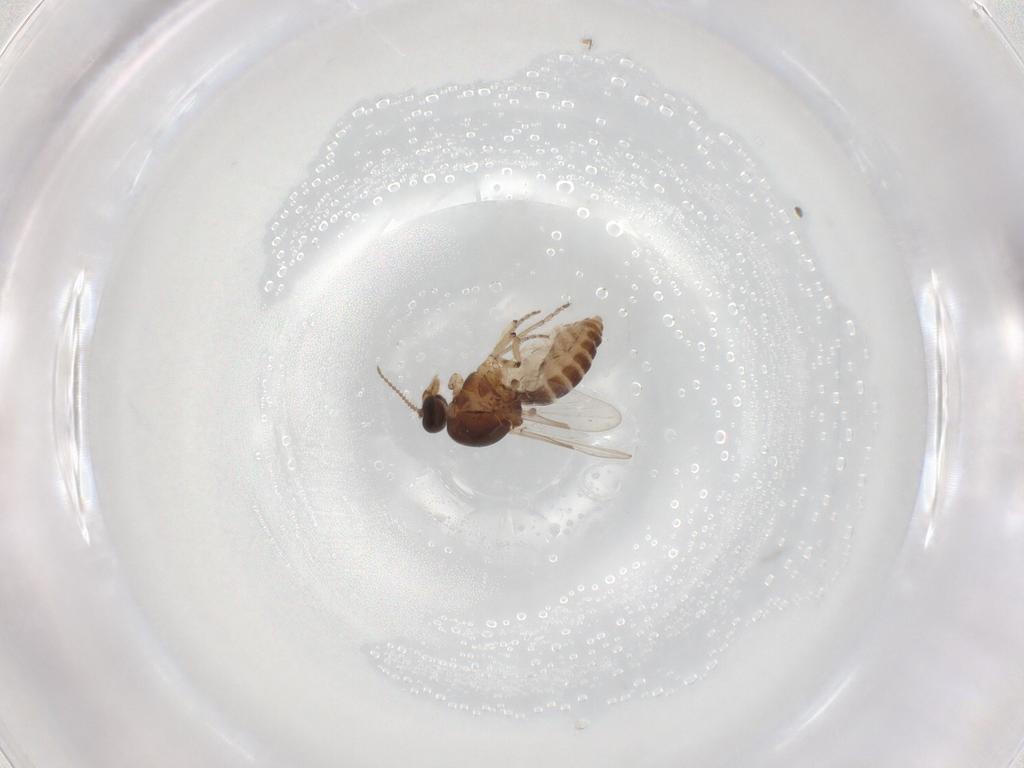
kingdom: Animalia
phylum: Arthropoda
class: Insecta
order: Diptera
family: Ceratopogonidae
